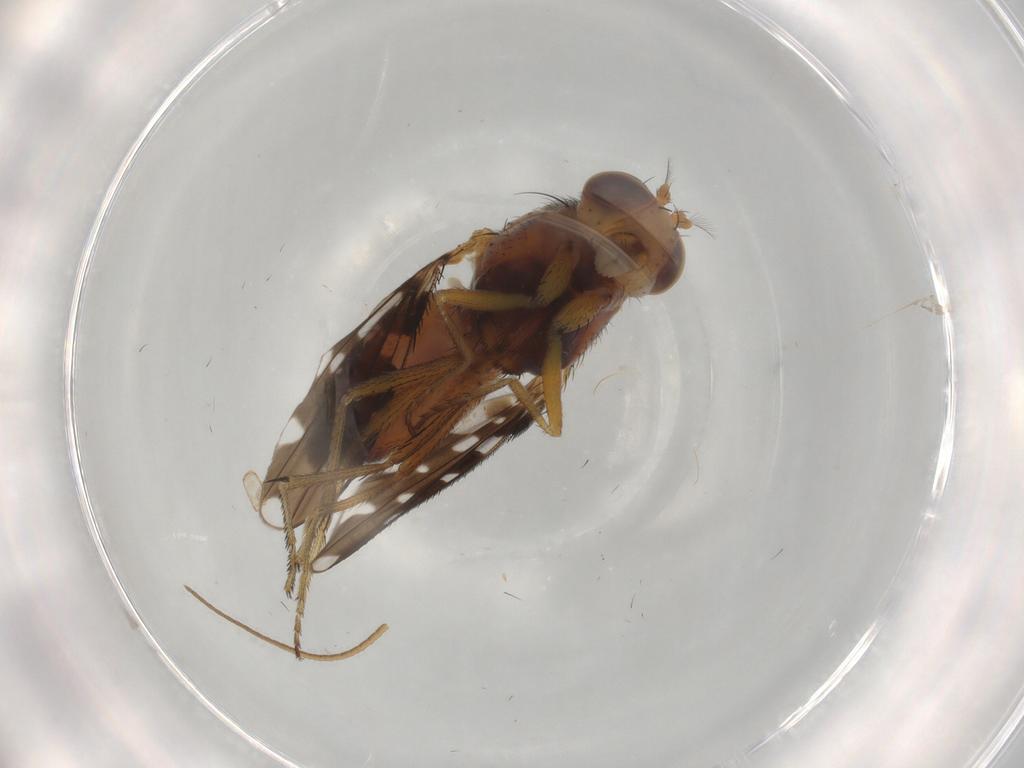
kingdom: Animalia
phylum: Arthropoda
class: Insecta
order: Diptera
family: Ephydridae
